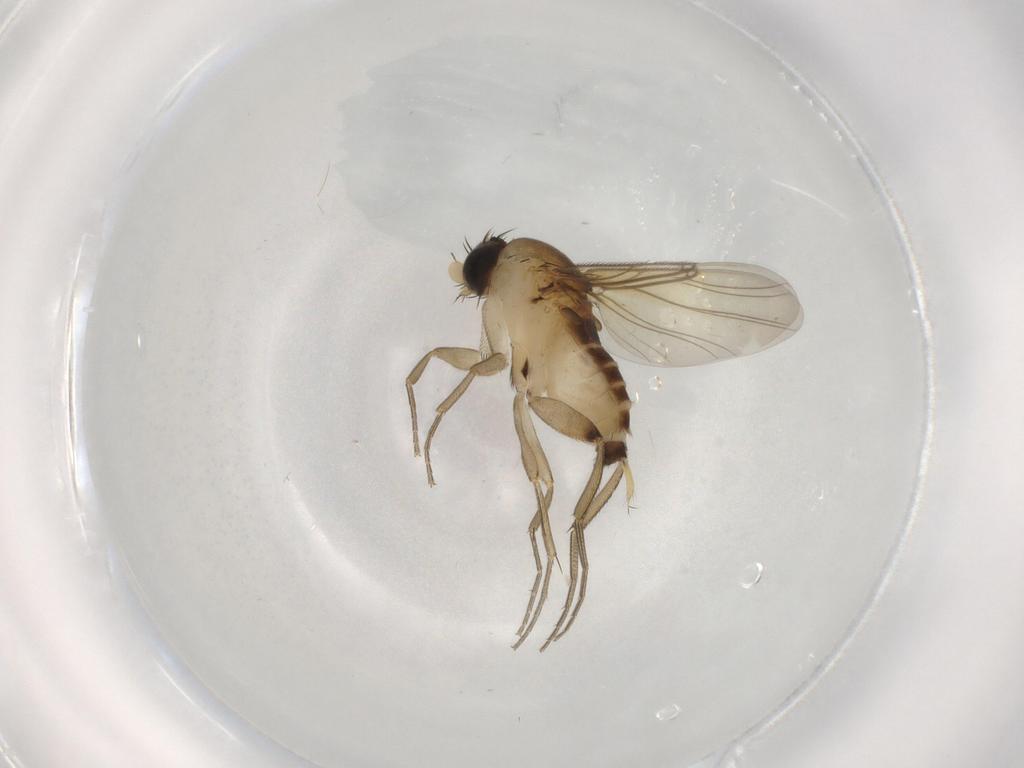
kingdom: Animalia
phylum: Arthropoda
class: Insecta
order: Diptera
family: Phoridae
